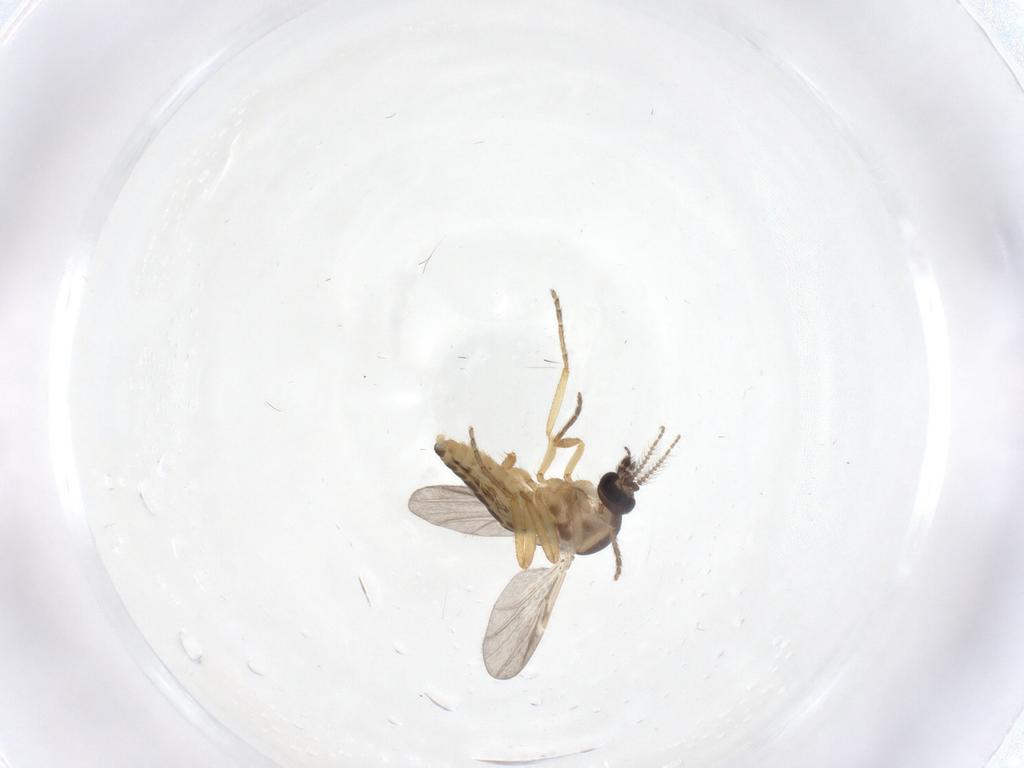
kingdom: Animalia
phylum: Arthropoda
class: Insecta
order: Diptera
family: Ceratopogonidae
